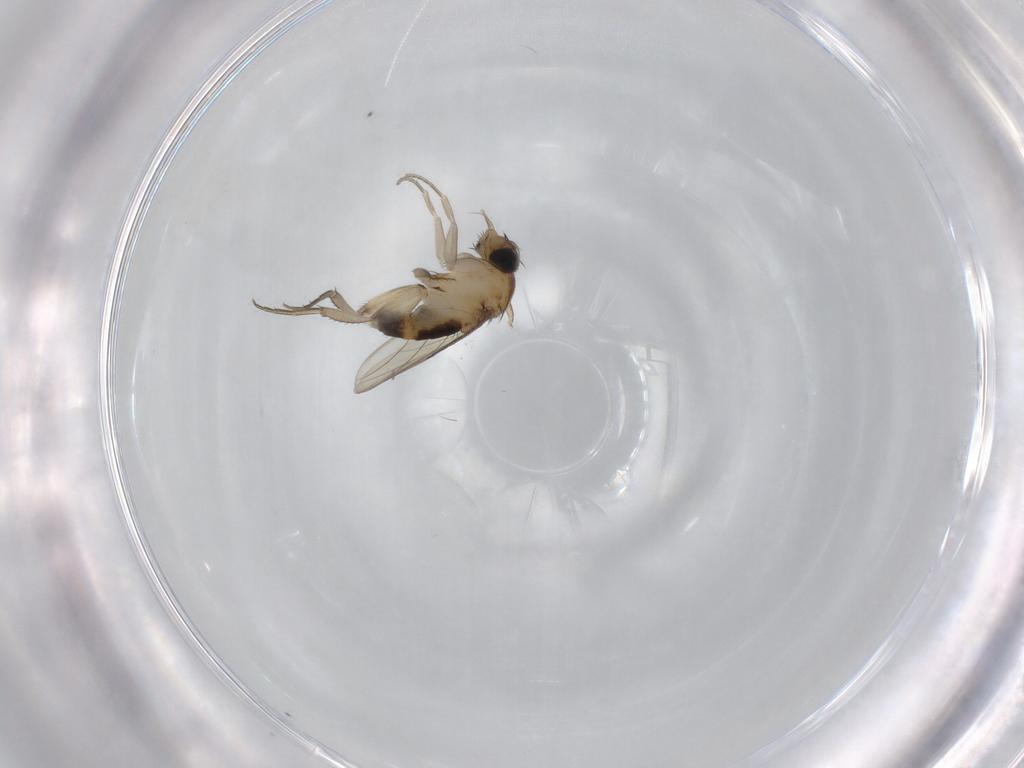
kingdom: Animalia
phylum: Arthropoda
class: Insecta
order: Diptera
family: Phoridae
